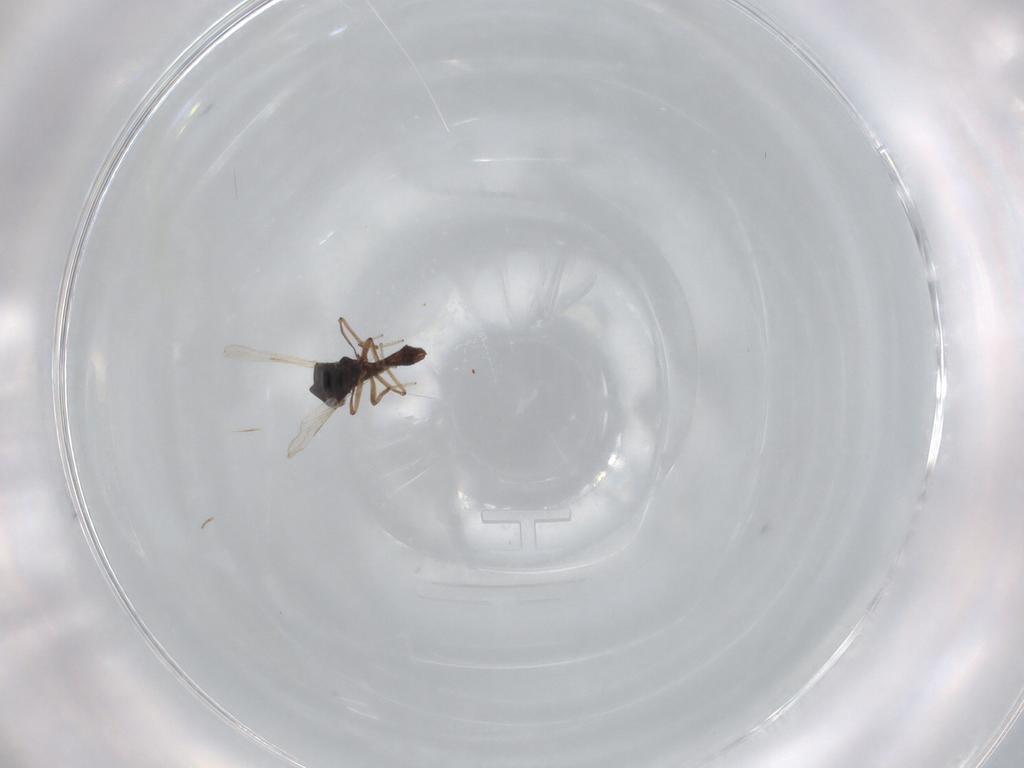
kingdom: Animalia
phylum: Arthropoda
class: Insecta
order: Diptera
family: Ceratopogonidae
